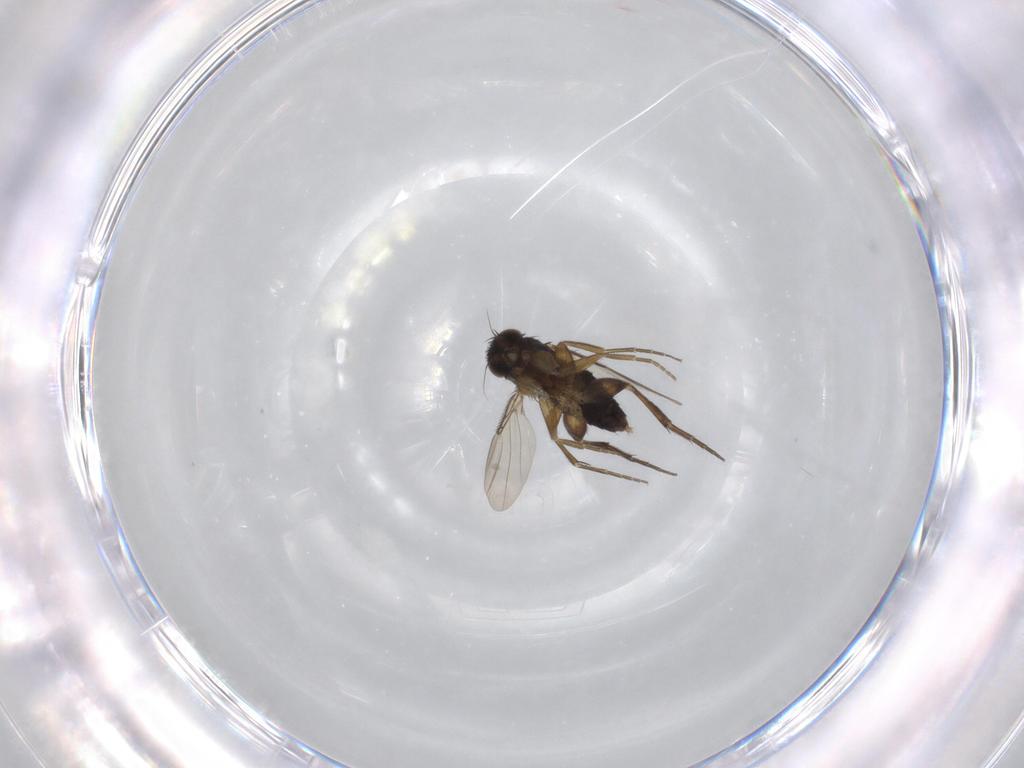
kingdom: Animalia
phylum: Arthropoda
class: Insecta
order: Diptera
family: Phoridae
